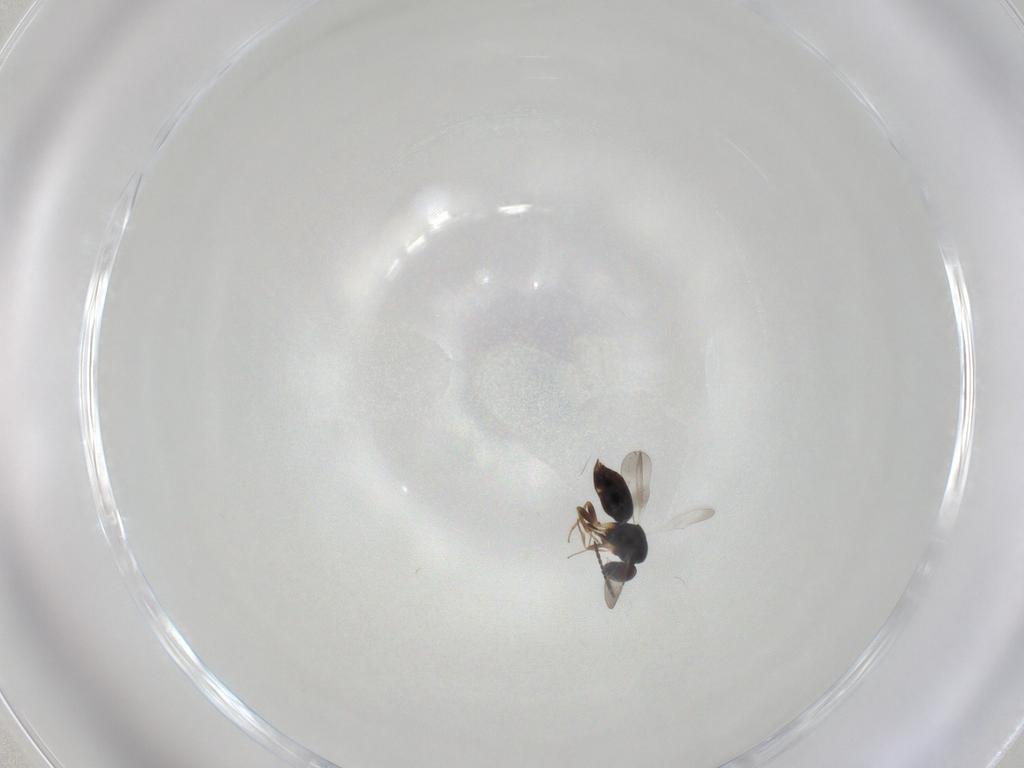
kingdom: Animalia
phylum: Arthropoda
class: Insecta
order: Hymenoptera
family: Ceraphronidae
